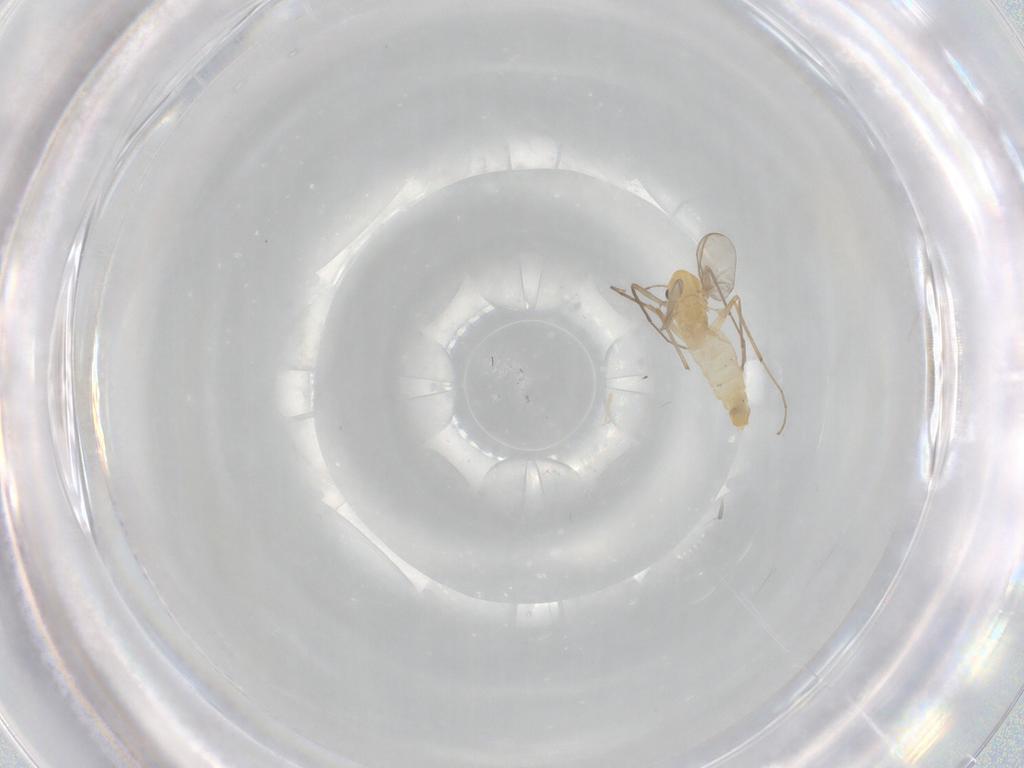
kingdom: Animalia
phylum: Arthropoda
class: Insecta
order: Diptera
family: Chironomidae
